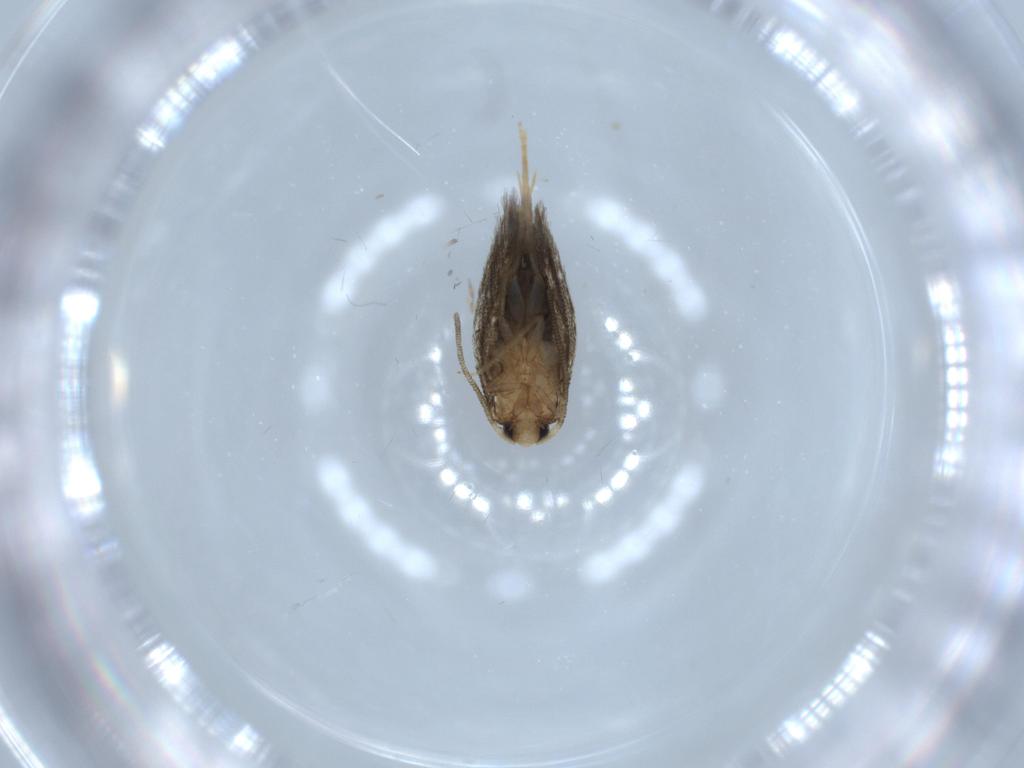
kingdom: Animalia
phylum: Arthropoda
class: Insecta
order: Lepidoptera
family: Nepticulidae
